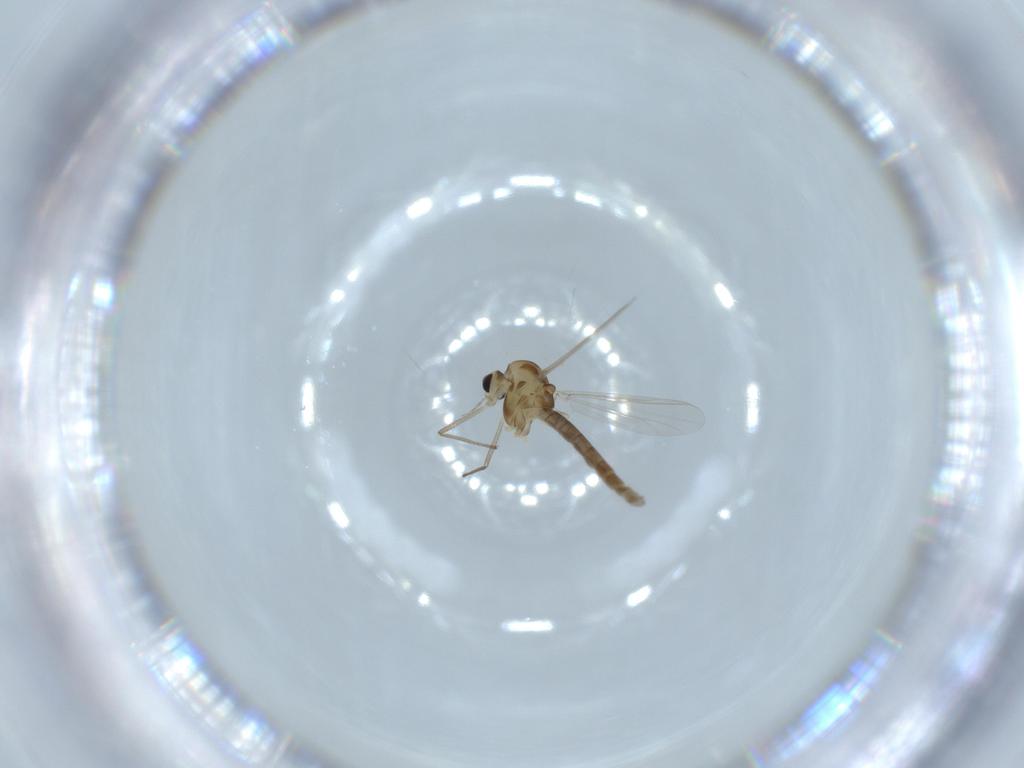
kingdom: Animalia
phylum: Arthropoda
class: Insecta
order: Diptera
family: Chironomidae
